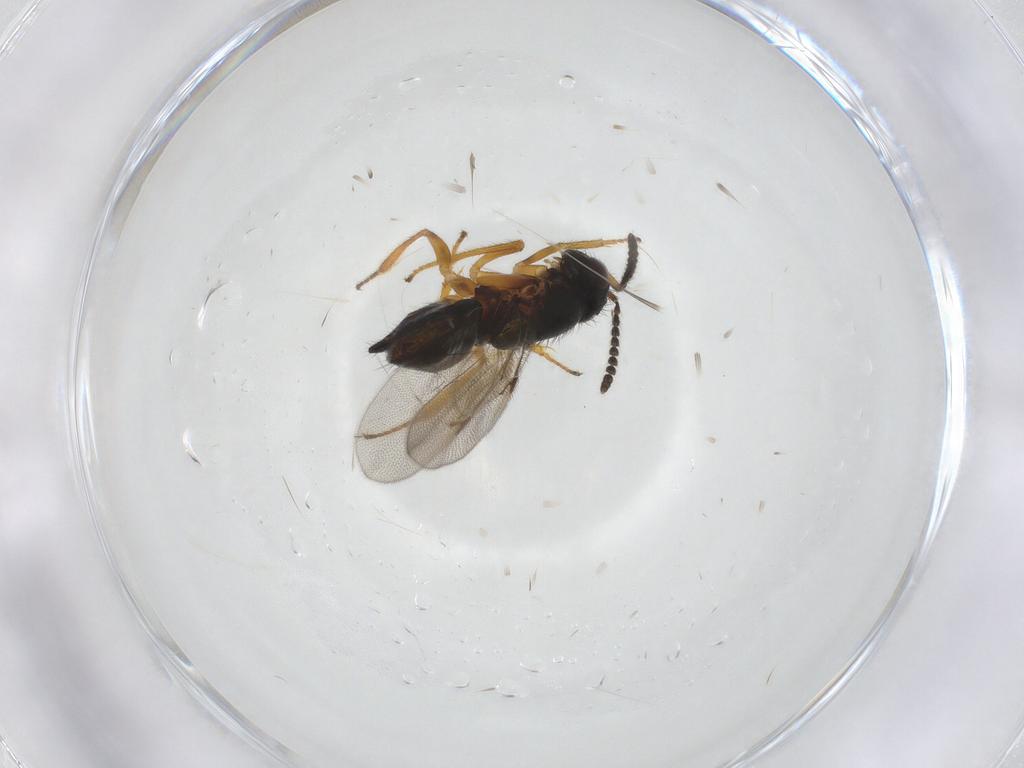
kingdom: Animalia
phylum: Arthropoda
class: Insecta
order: Hymenoptera
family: Encyrtidae
